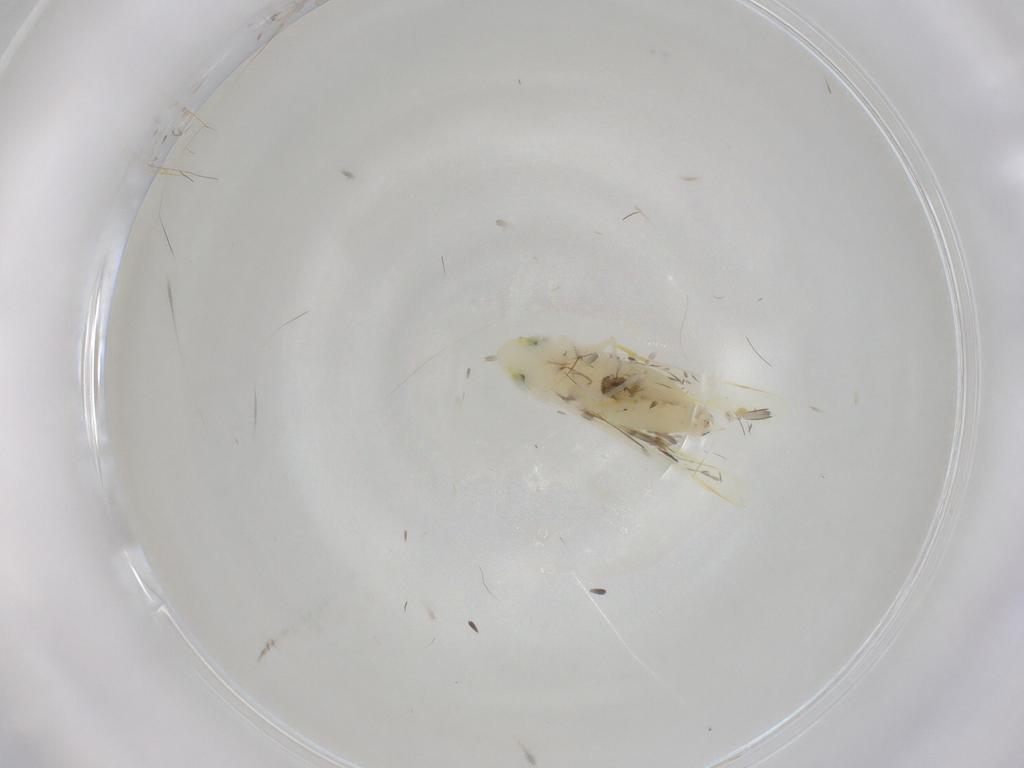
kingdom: Animalia
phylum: Arthropoda
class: Insecta
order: Hemiptera
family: Cicadellidae
